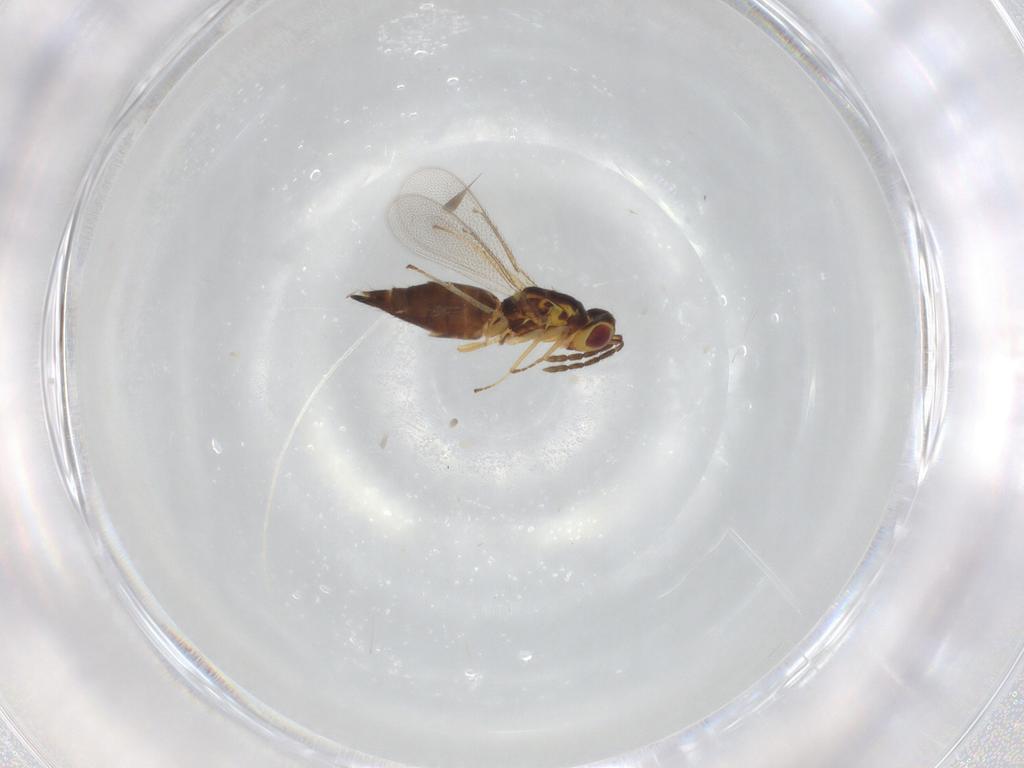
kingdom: Animalia
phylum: Arthropoda
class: Insecta
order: Hymenoptera
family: Eulophidae
